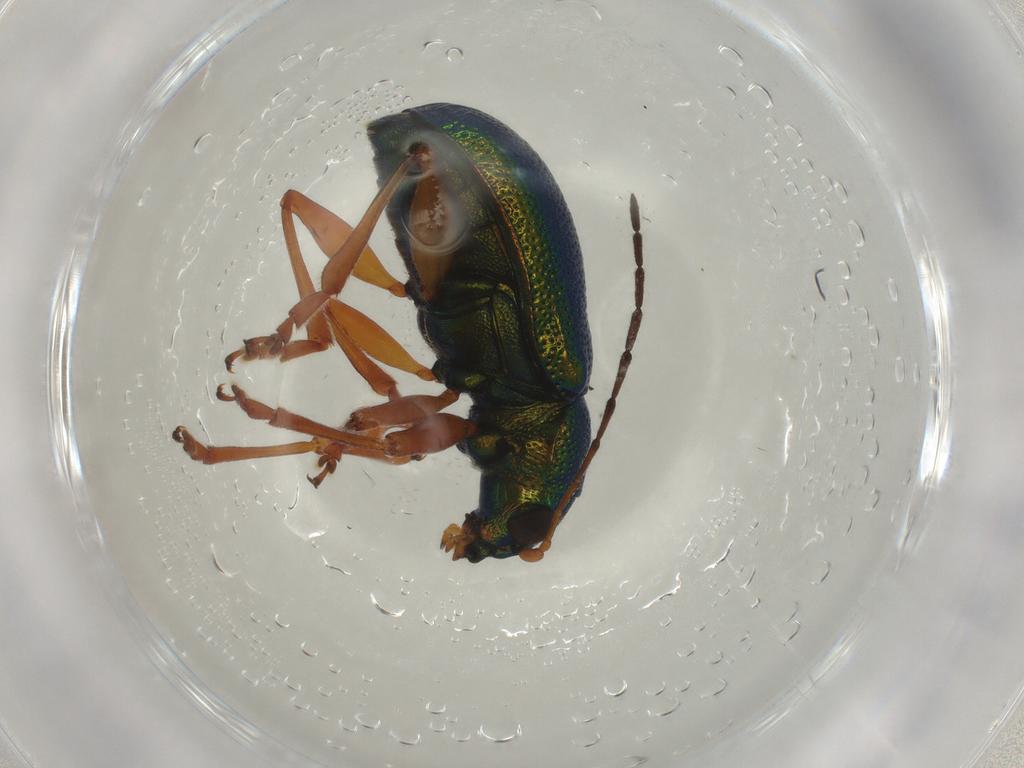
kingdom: Animalia
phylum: Arthropoda
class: Insecta
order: Coleoptera
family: Chrysomelidae
